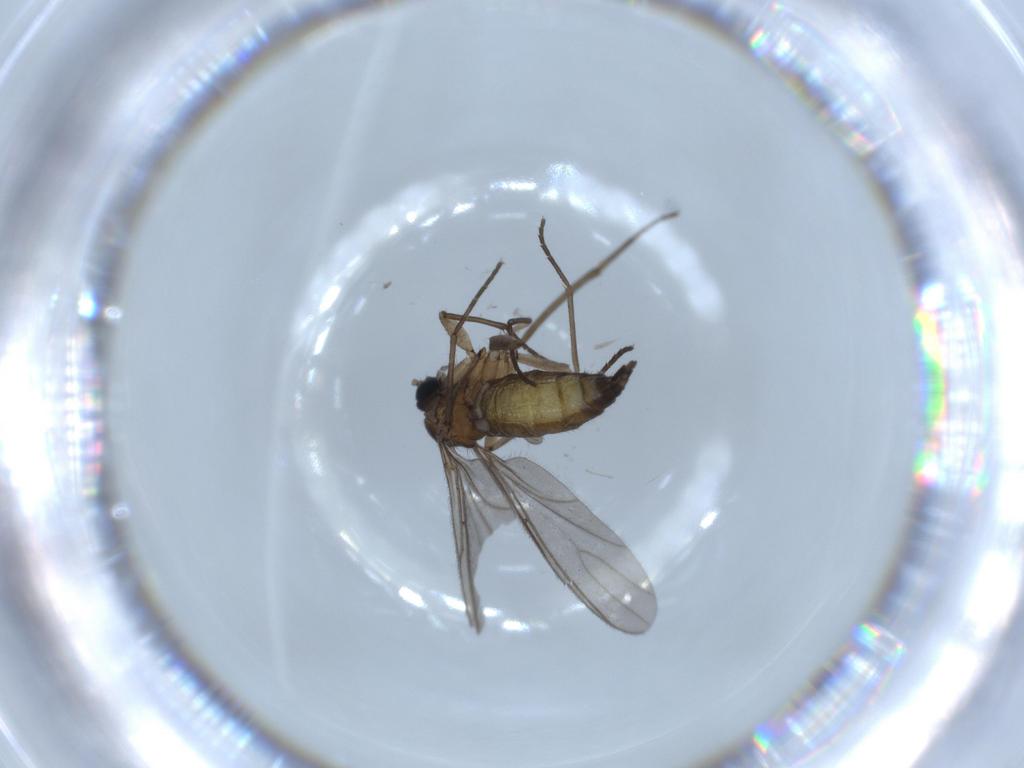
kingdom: Animalia
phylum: Arthropoda
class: Insecta
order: Diptera
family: Sciaridae
